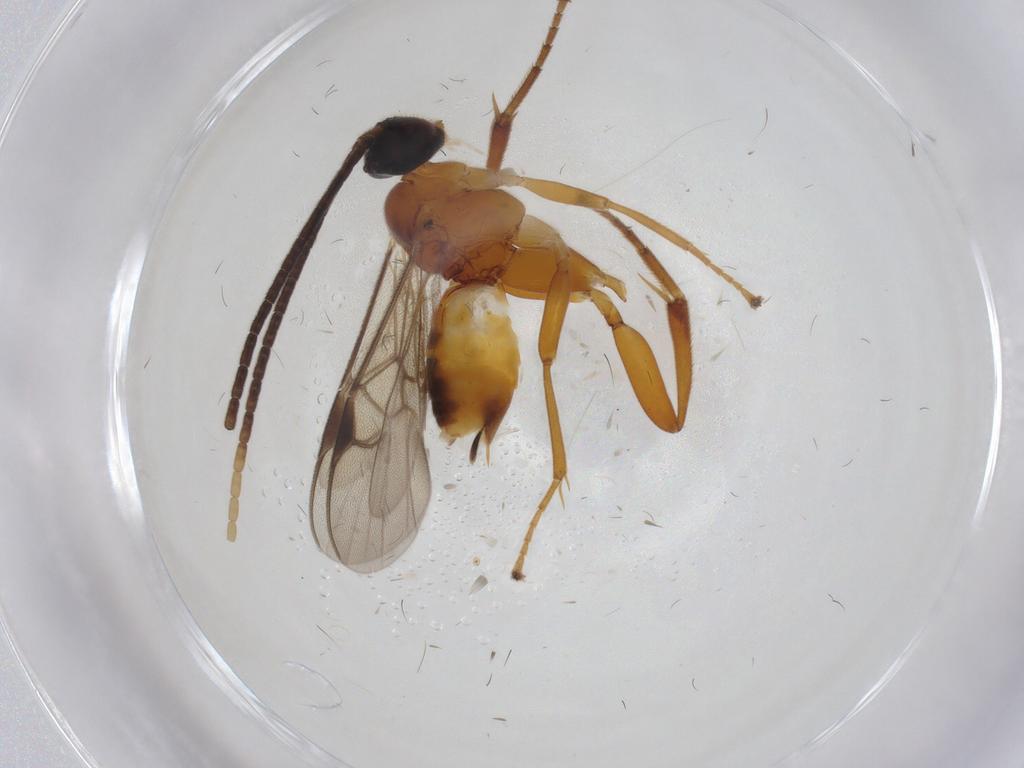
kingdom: Animalia
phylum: Arthropoda
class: Insecta
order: Hymenoptera
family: Braconidae
